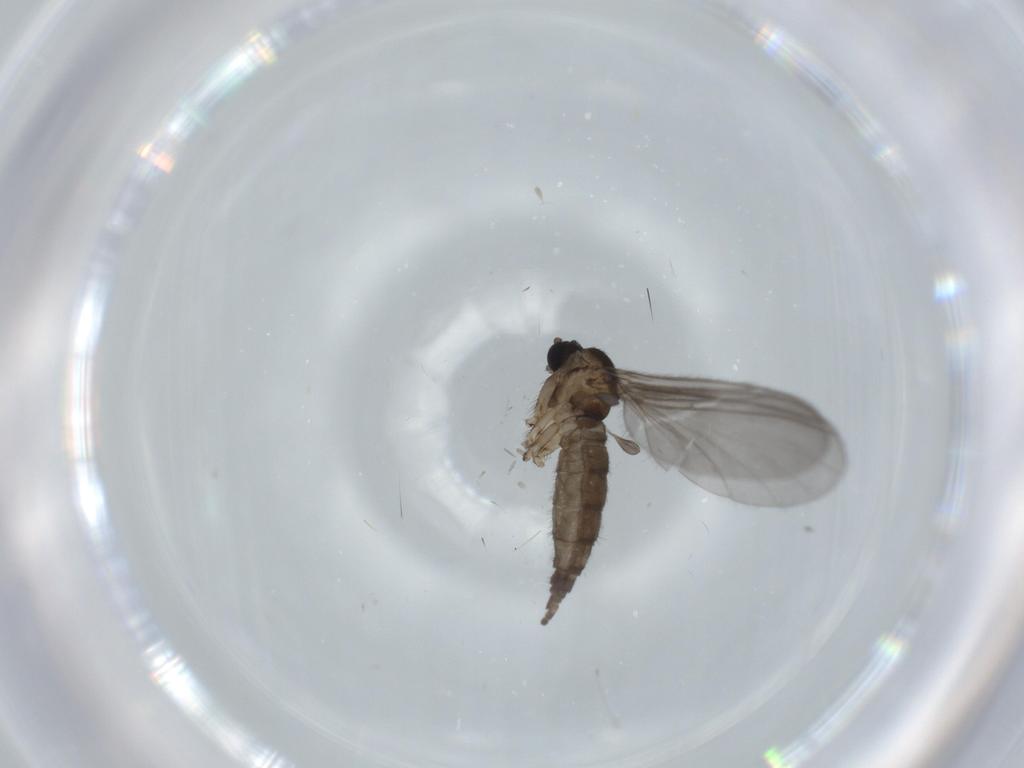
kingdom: Animalia
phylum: Arthropoda
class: Insecta
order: Diptera
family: Sciaridae
